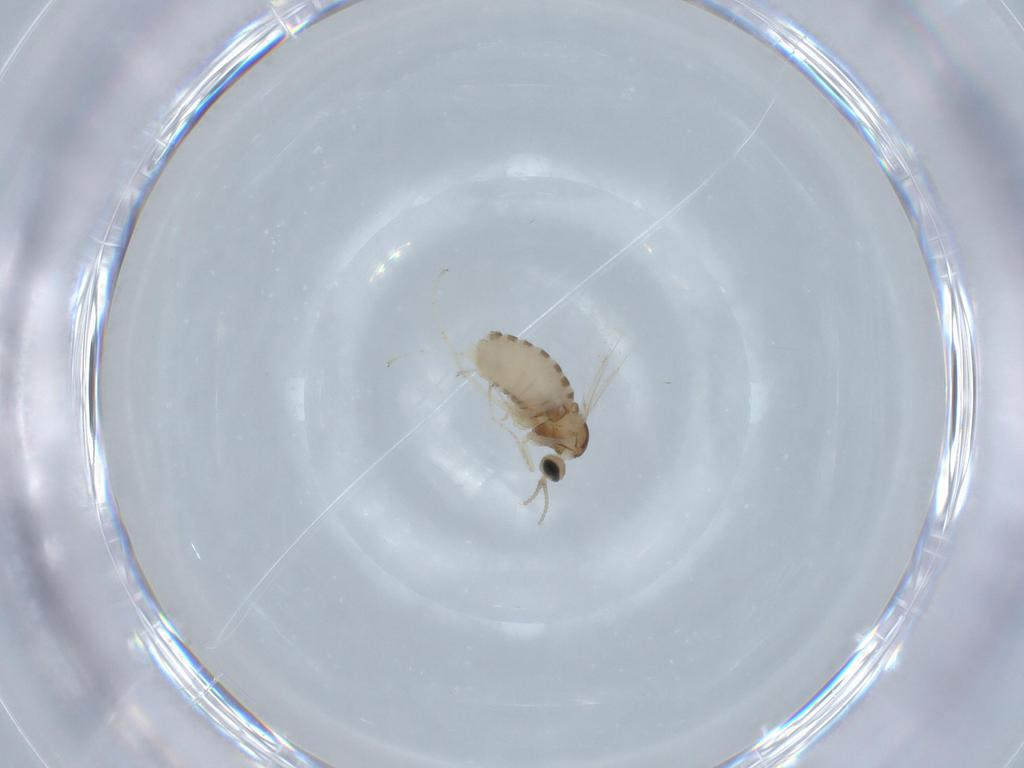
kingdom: Animalia
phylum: Arthropoda
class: Insecta
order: Diptera
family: Cecidomyiidae
